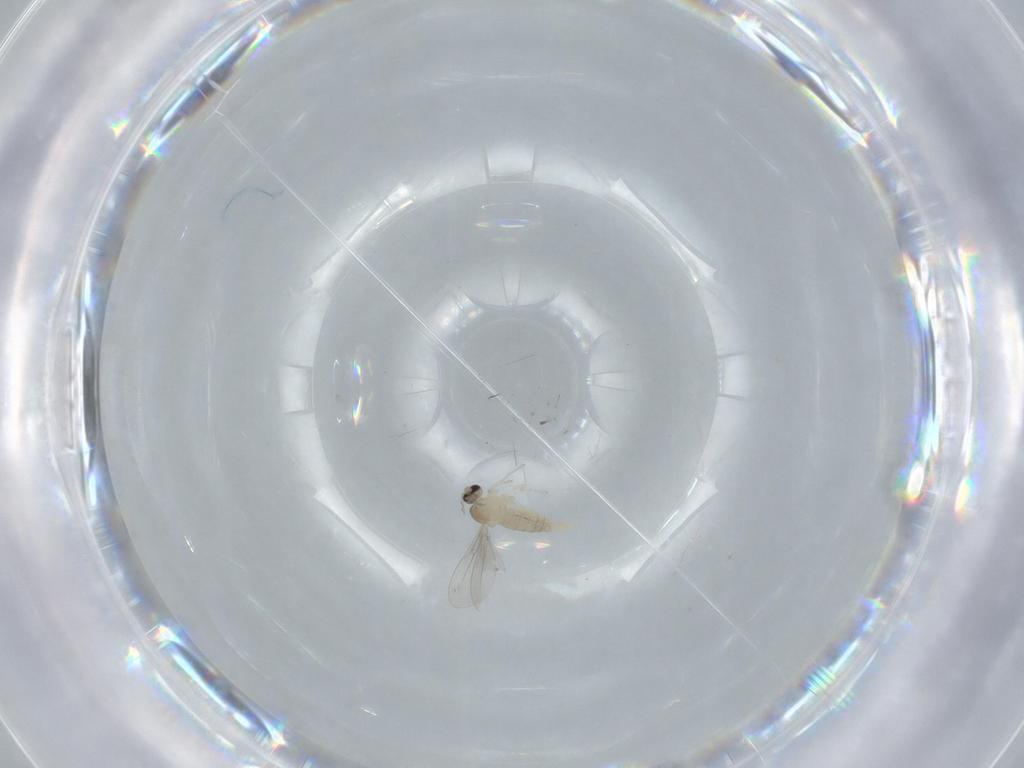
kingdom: Animalia
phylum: Arthropoda
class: Insecta
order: Diptera
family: Cecidomyiidae
